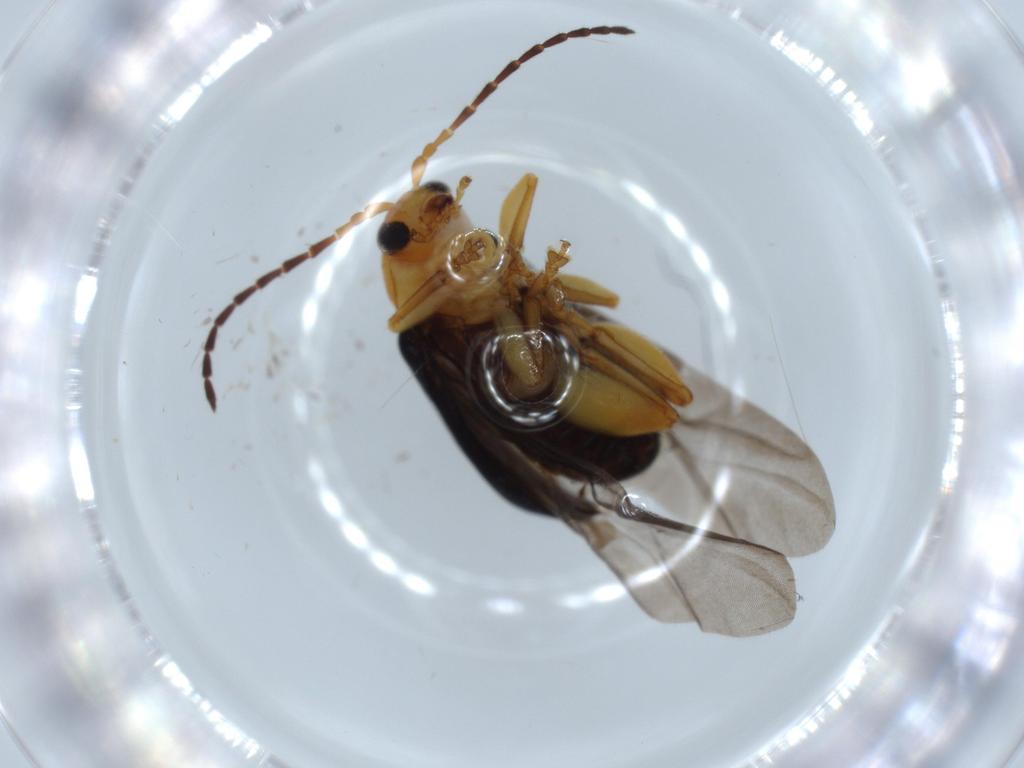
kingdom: Animalia
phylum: Arthropoda
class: Insecta
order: Coleoptera
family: Chrysomelidae
